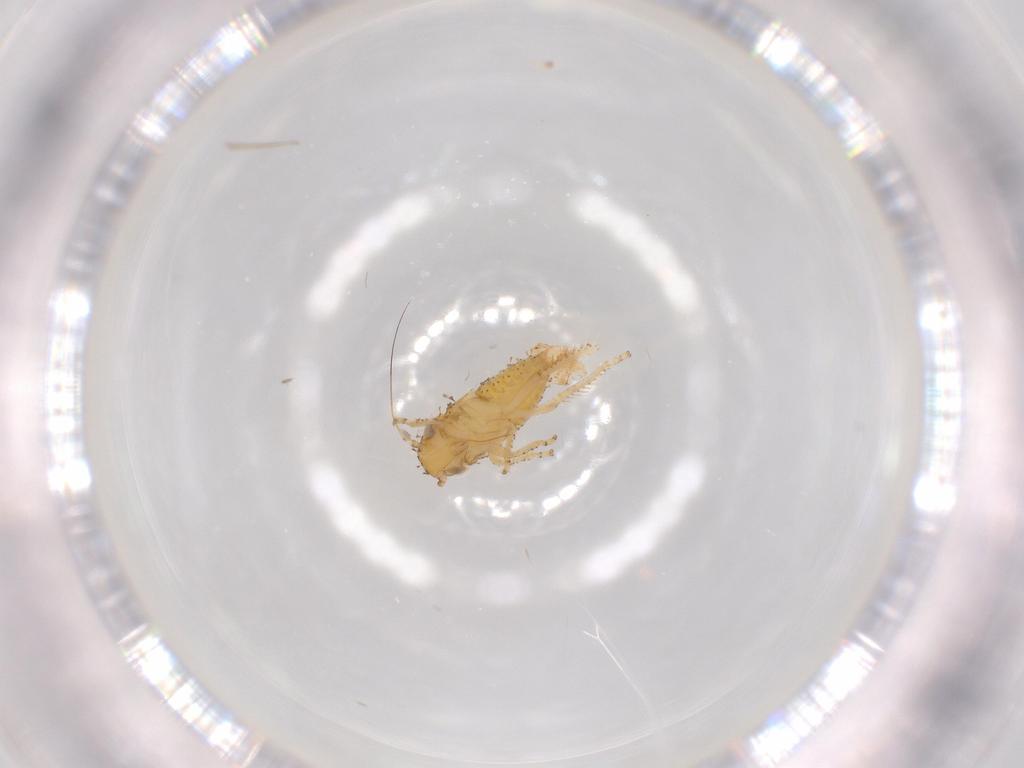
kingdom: Animalia
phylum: Arthropoda
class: Insecta
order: Hemiptera
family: Cicadellidae
